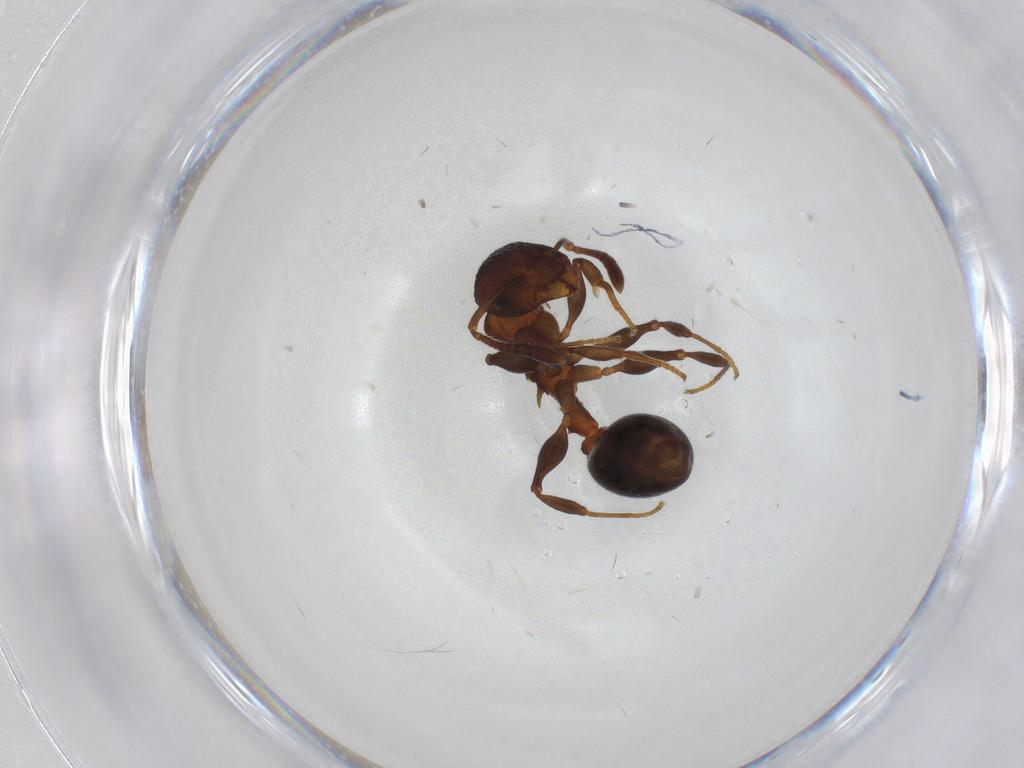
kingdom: Animalia
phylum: Arthropoda
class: Insecta
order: Hymenoptera
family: Formicidae
